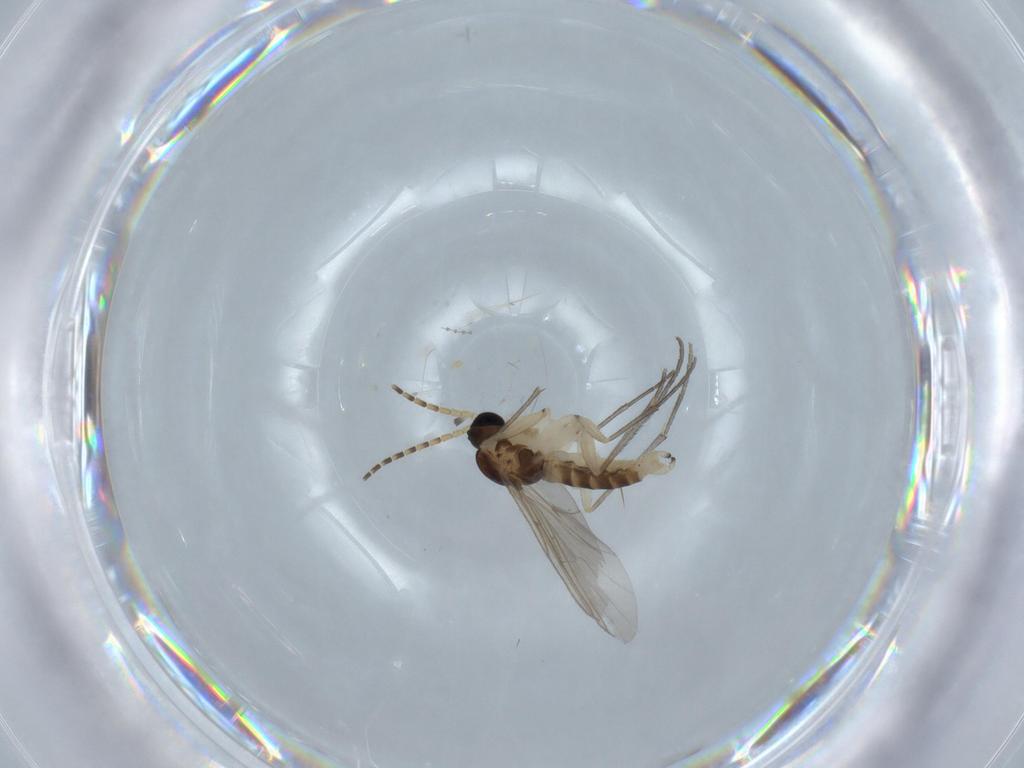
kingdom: Animalia
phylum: Arthropoda
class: Insecta
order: Diptera
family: Sciaridae
